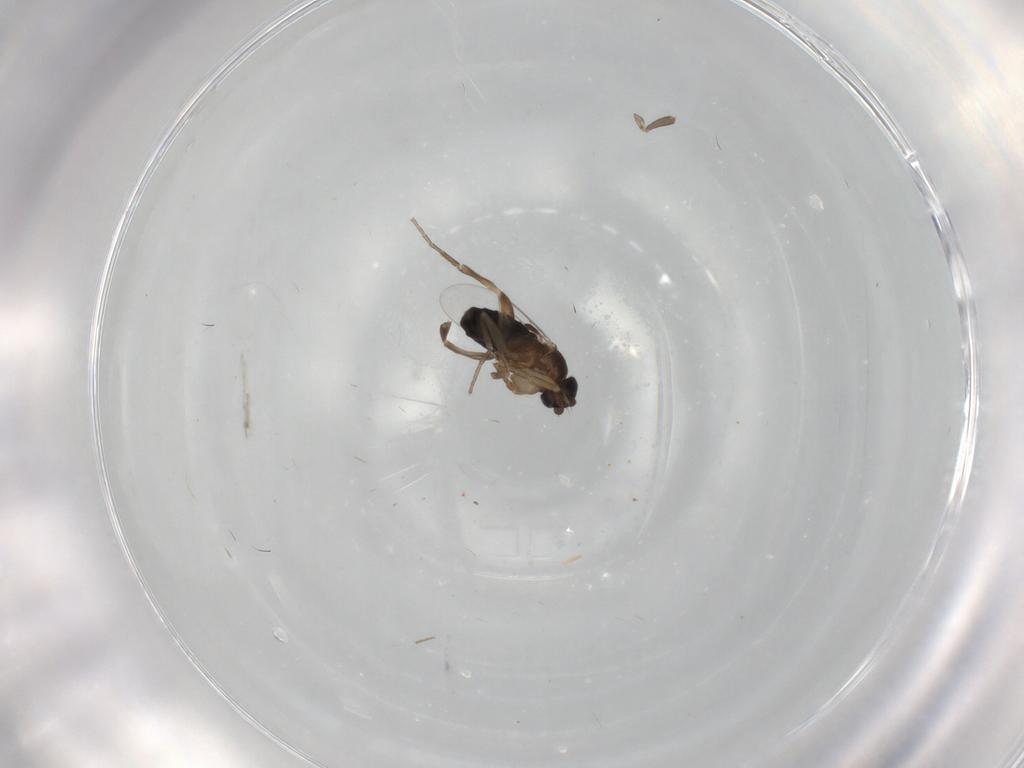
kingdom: Animalia
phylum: Arthropoda
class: Insecta
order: Diptera
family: Phoridae
